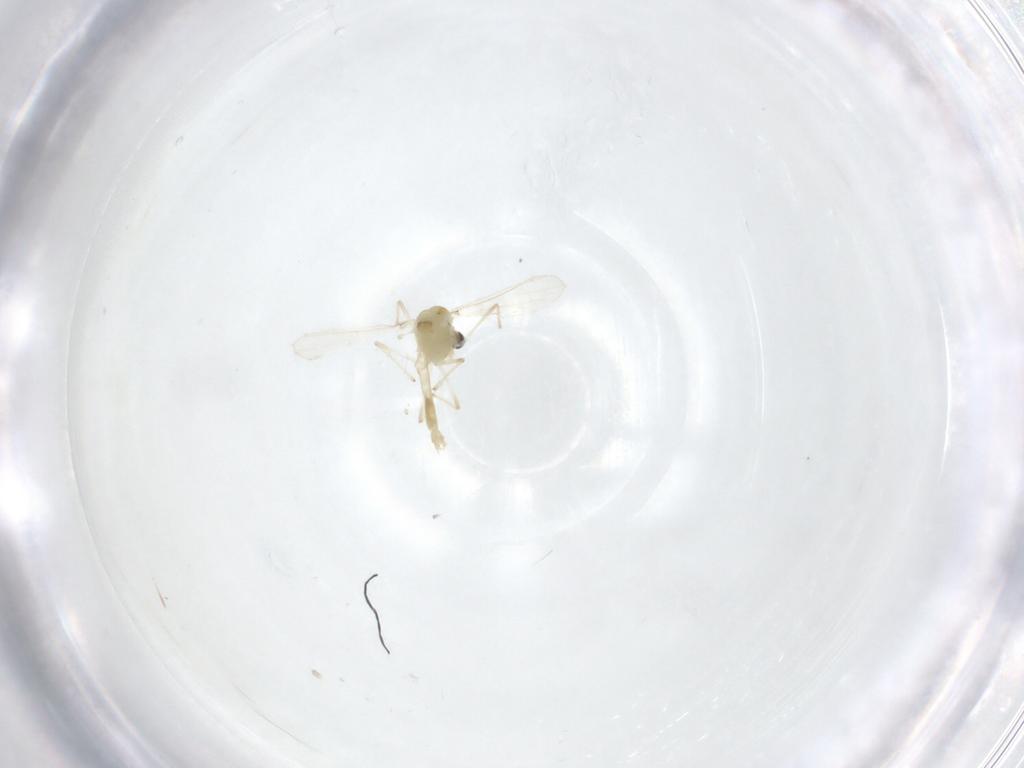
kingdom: Animalia
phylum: Arthropoda
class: Insecta
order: Diptera
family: Chironomidae
